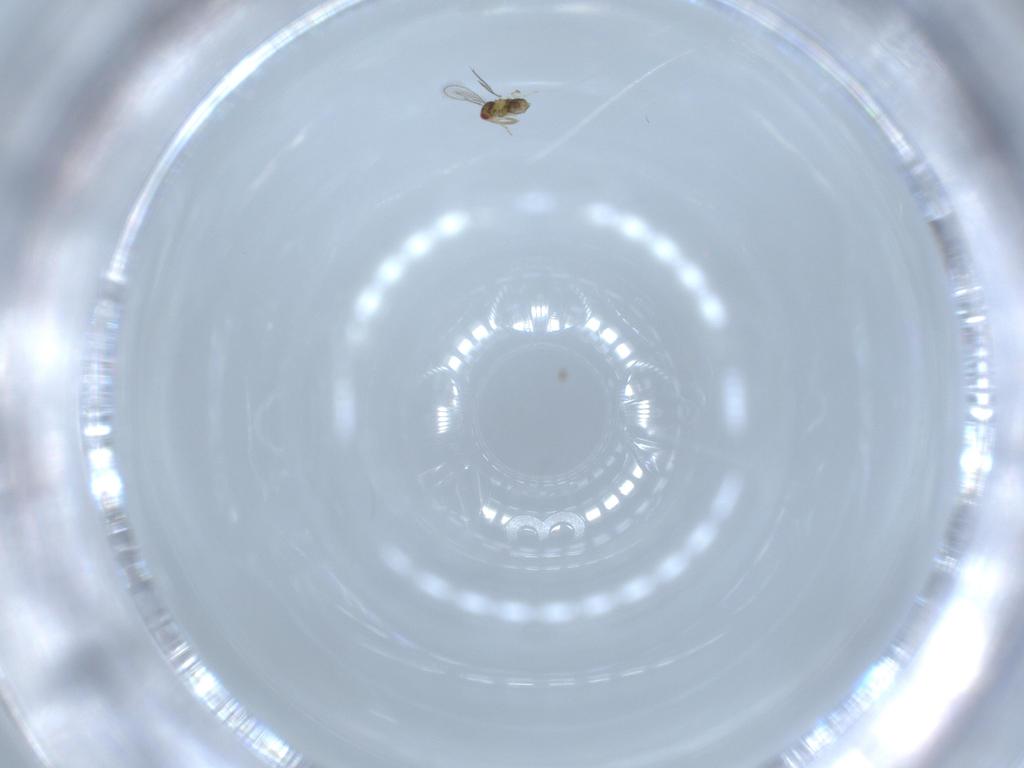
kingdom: Animalia
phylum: Arthropoda
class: Insecta
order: Hymenoptera
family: Aphelinidae
